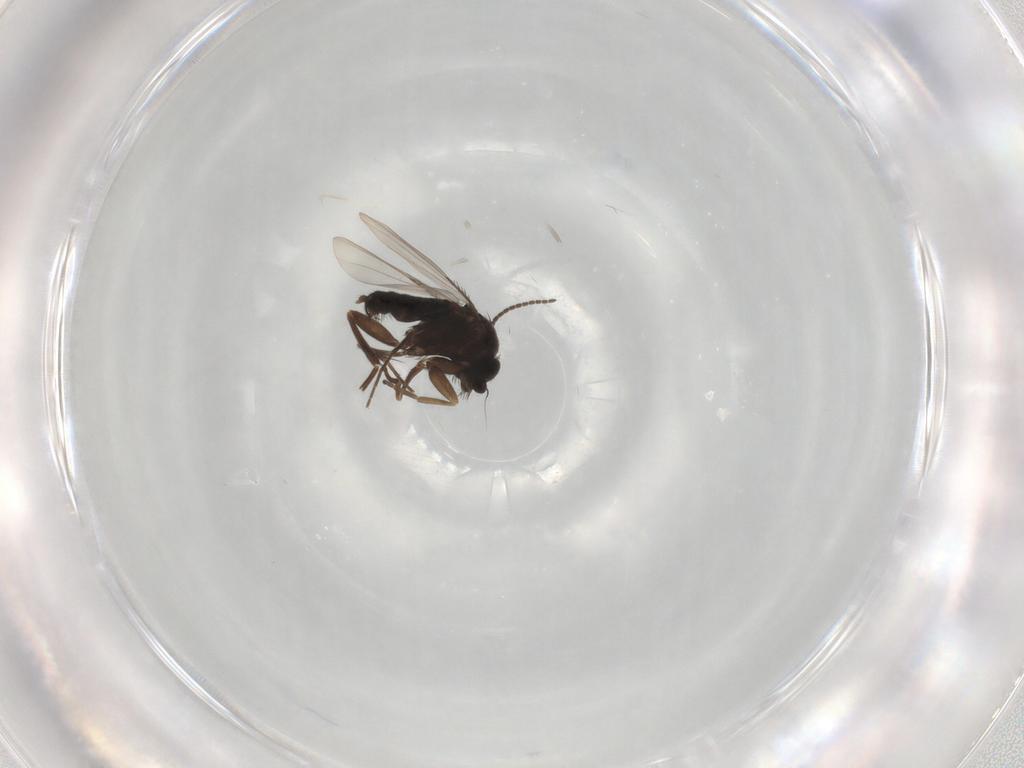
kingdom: Animalia
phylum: Arthropoda
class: Insecta
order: Diptera
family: Phoridae
